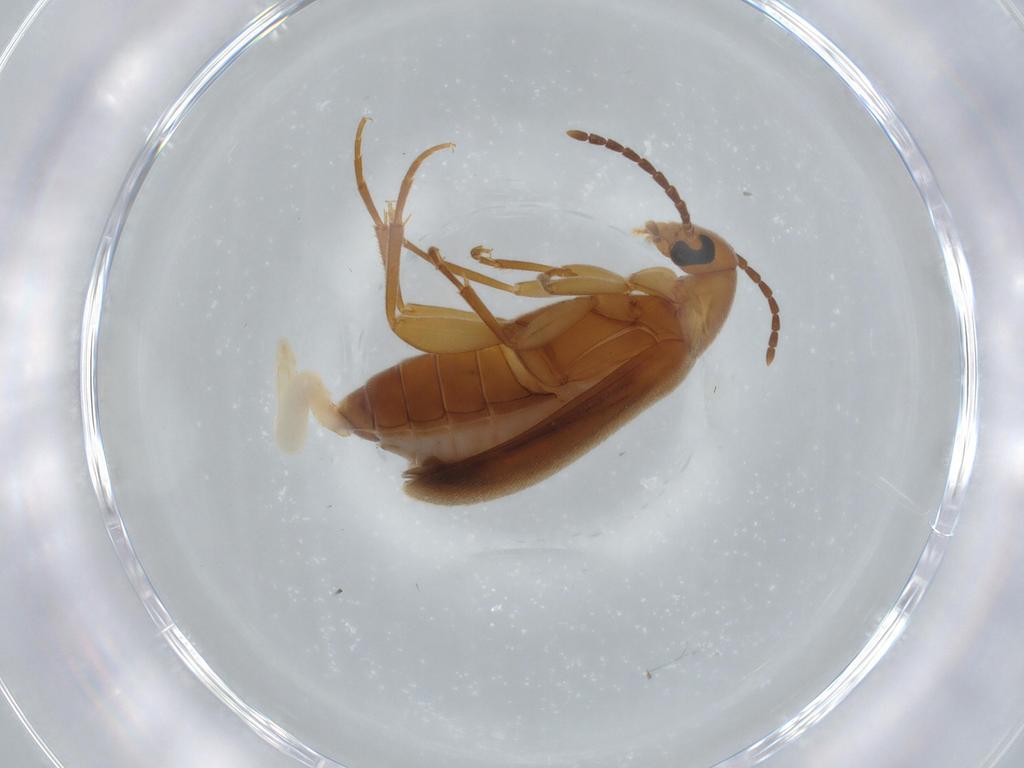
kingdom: Animalia
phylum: Arthropoda
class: Insecta
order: Coleoptera
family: Scraptiidae
